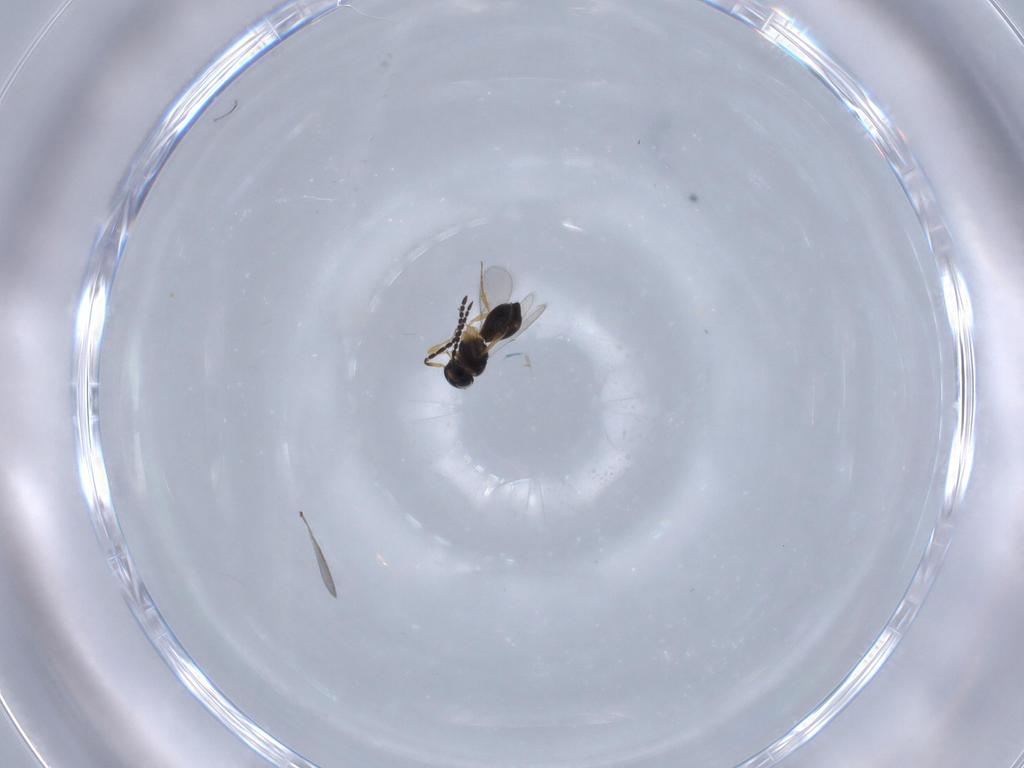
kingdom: Animalia
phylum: Arthropoda
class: Insecta
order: Hymenoptera
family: Scelionidae
